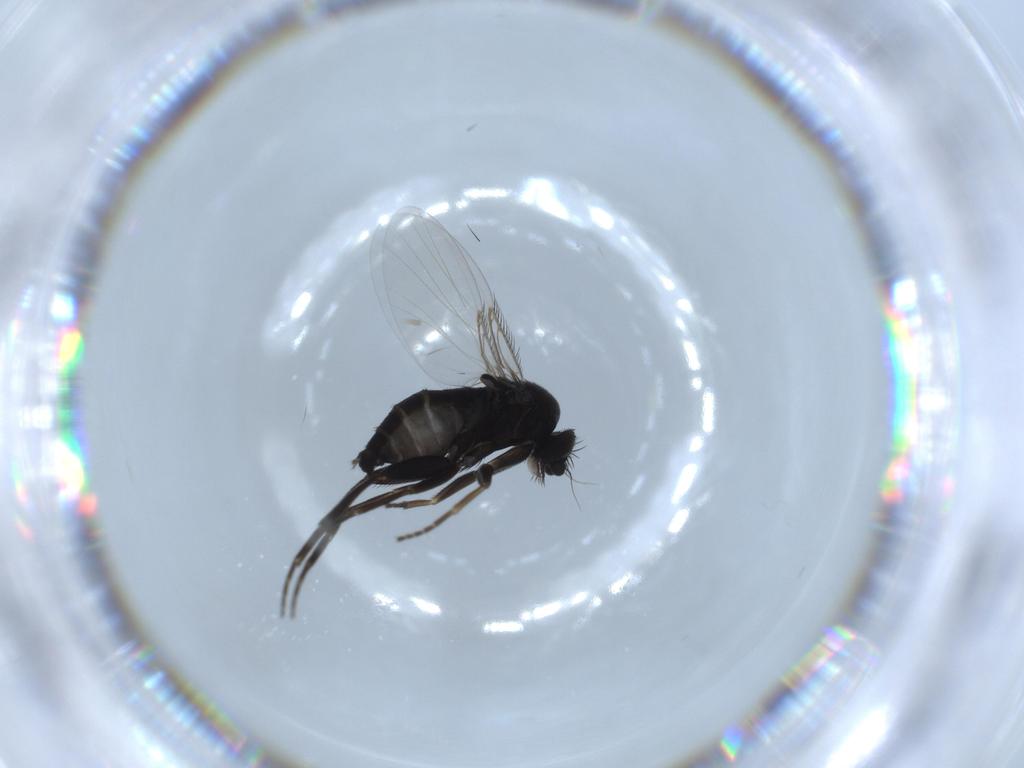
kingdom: Animalia
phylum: Arthropoda
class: Insecta
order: Diptera
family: Phoridae
